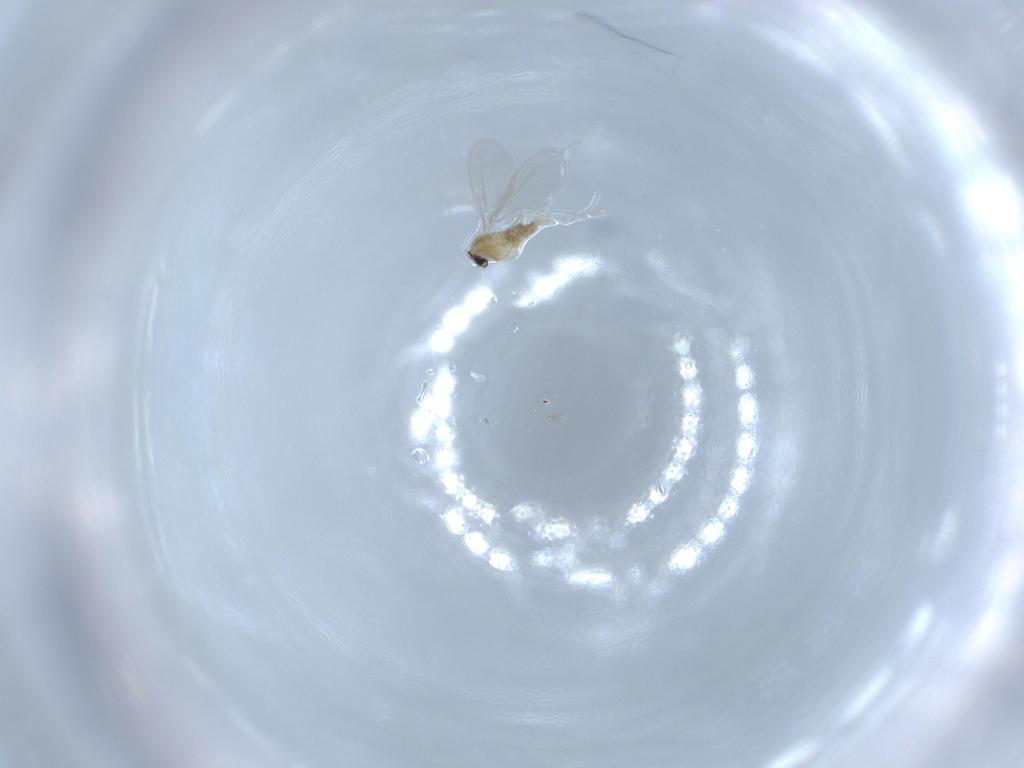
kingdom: Animalia
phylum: Arthropoda
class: Insecta
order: Diptera
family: Cecidomyiidae
